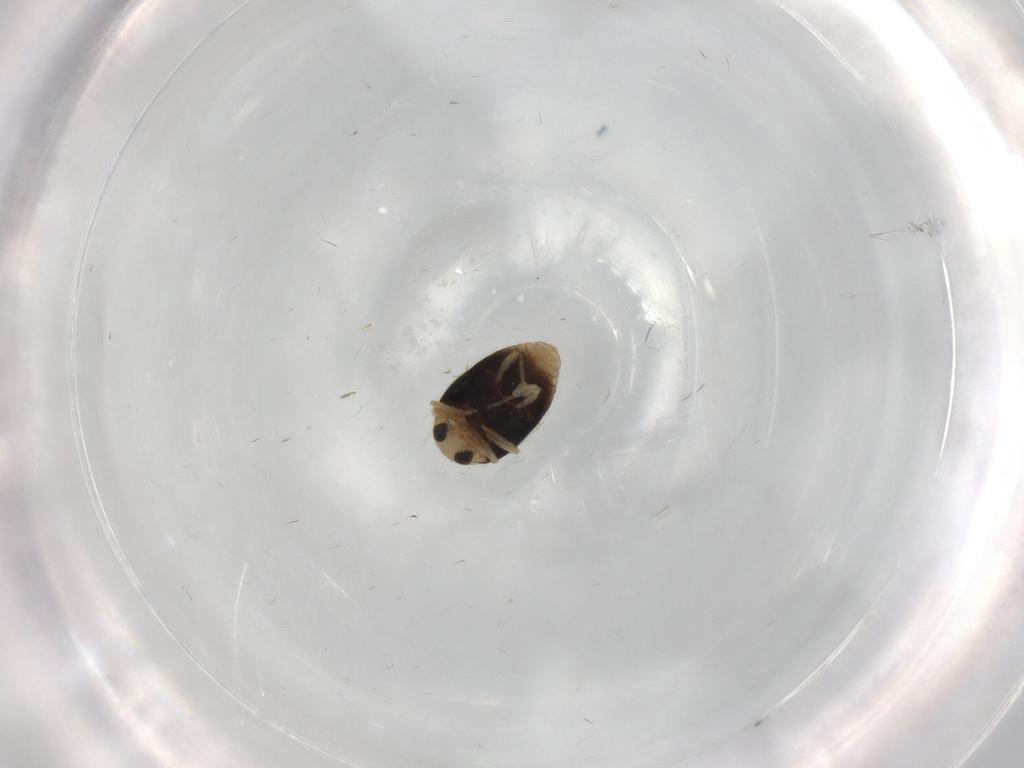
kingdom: Animalia
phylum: Arthropoda
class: Insecta
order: Coleoptera
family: Mordellidae
